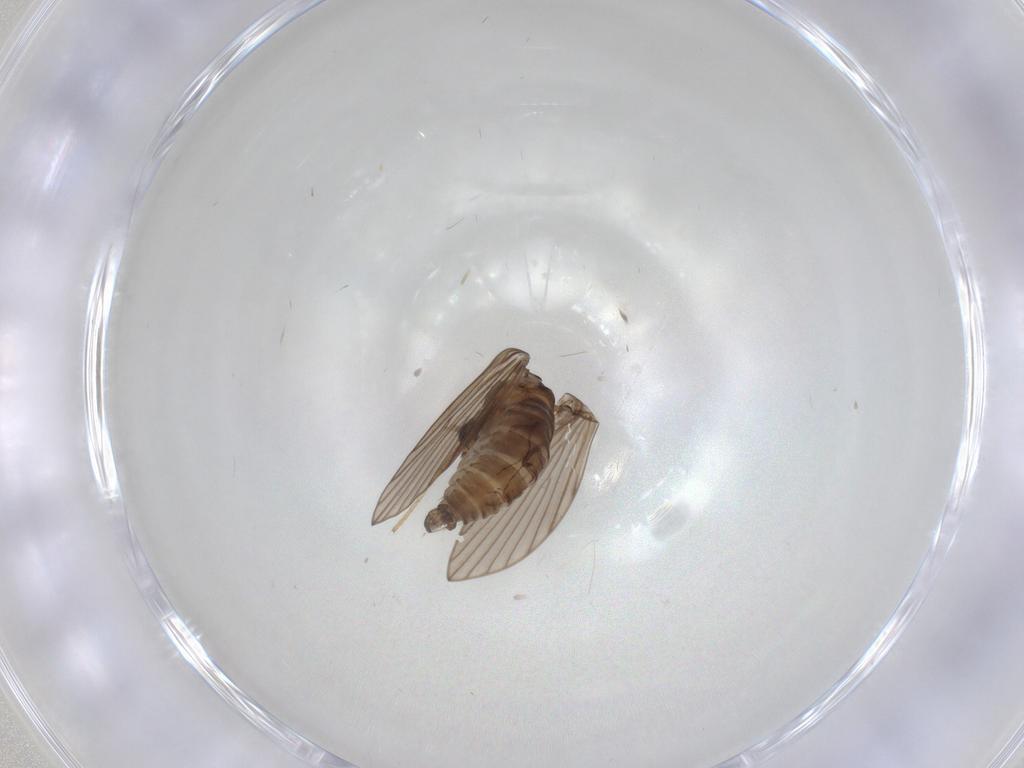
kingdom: Animalia
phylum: Arthropoda
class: Insecta
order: Diptera
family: Psychodidae
